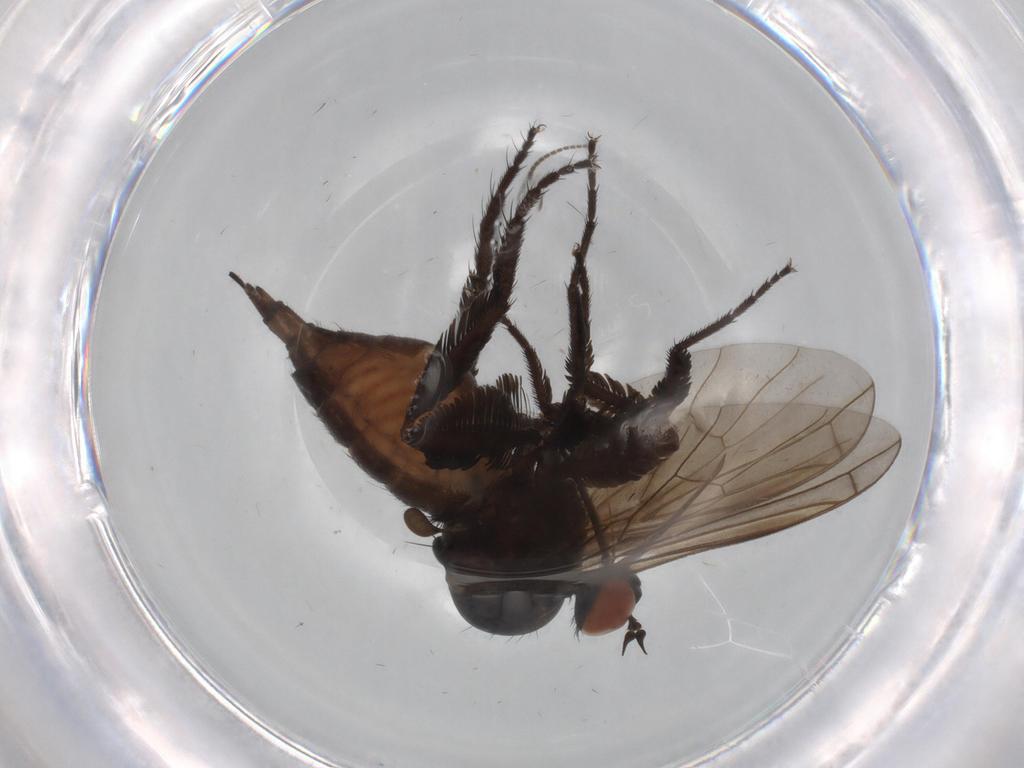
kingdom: Animalia
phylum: Arthropoda
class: Insecta
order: Diptera
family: Empididae
